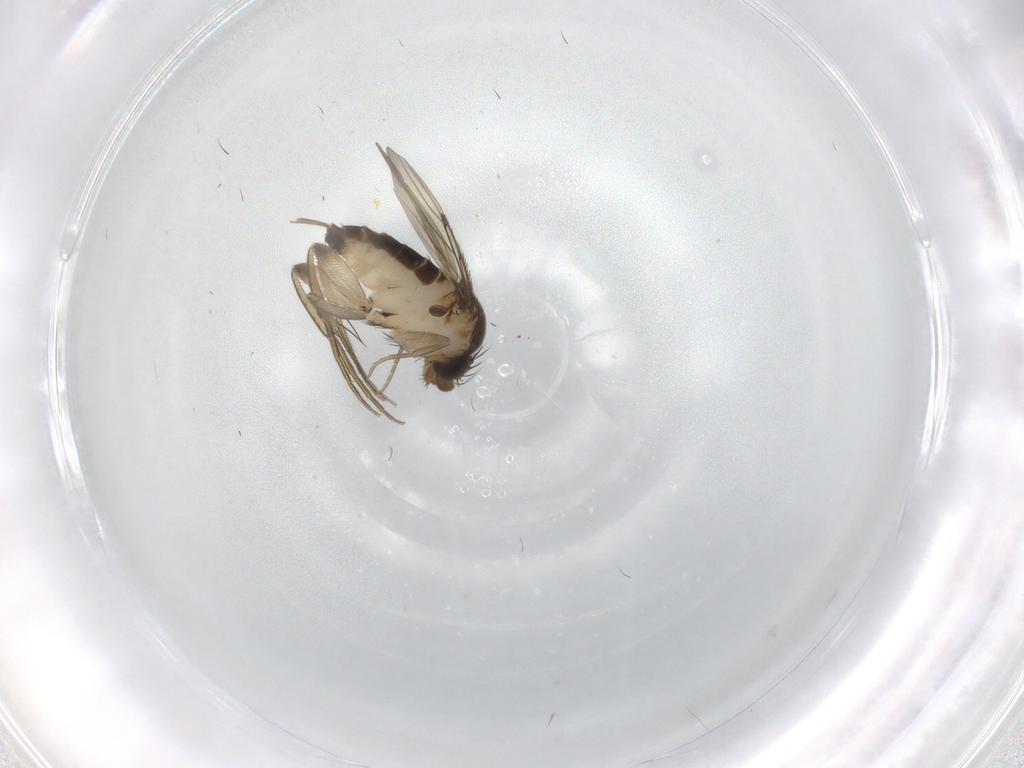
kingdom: Animalia
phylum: Arthropoda
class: Insecta
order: Diptera
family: Phoridae
